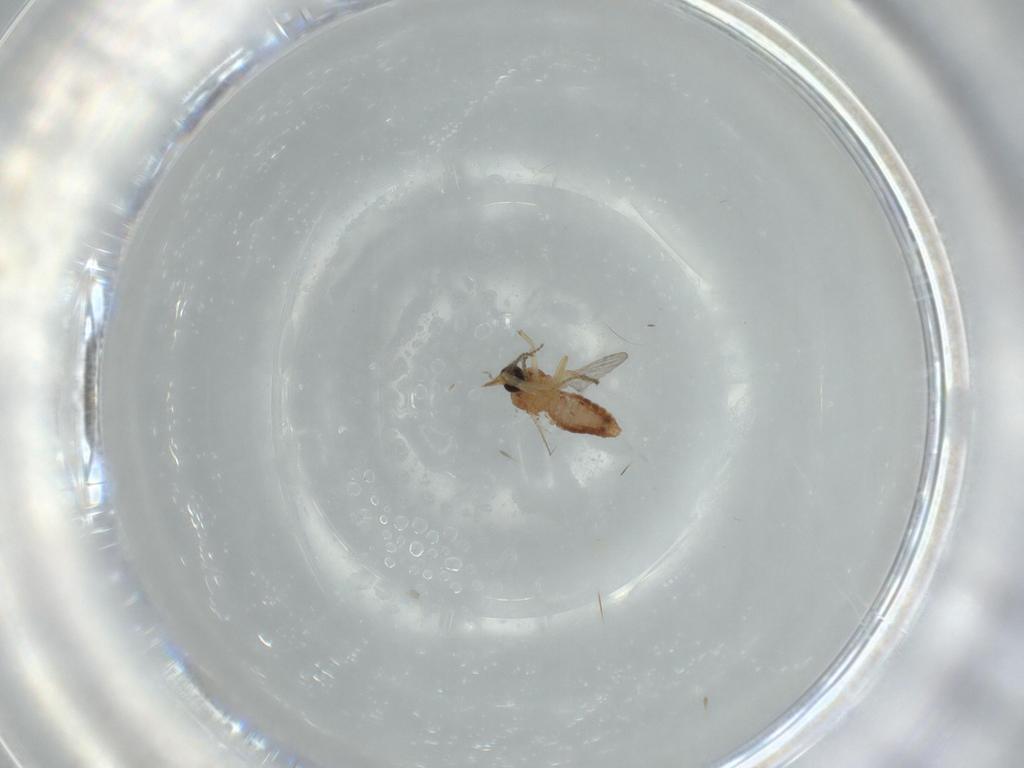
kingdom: Animalia
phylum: Arthropoda
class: Insecta
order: Diptera
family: Ceratopogonidae
